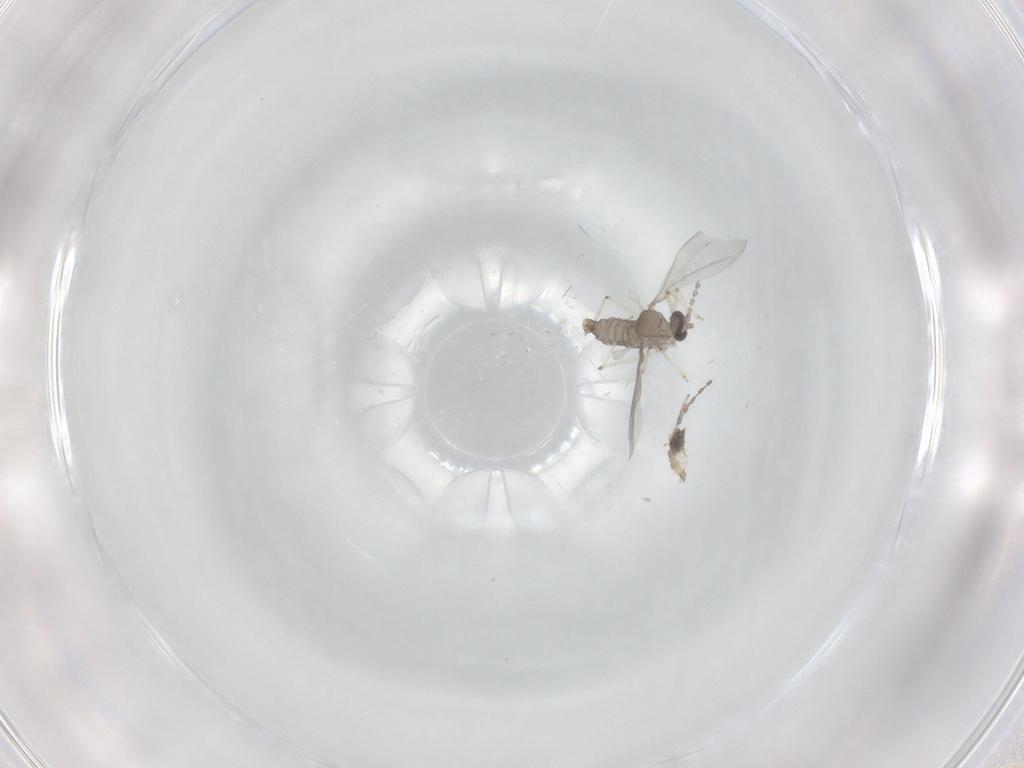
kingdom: Animalia
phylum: Arthropoda
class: Insecta
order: Diptera
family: Cecidomyiidae
